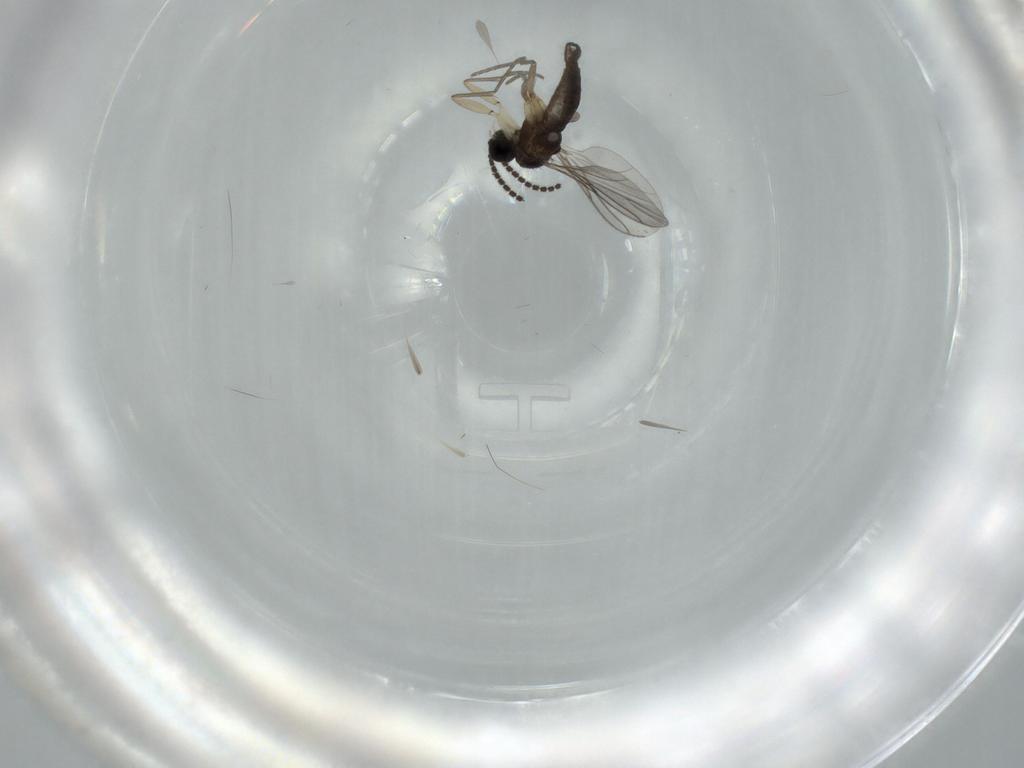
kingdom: Animalia
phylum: Arthropoda
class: Insecta
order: Diptera
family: Sciaridae
